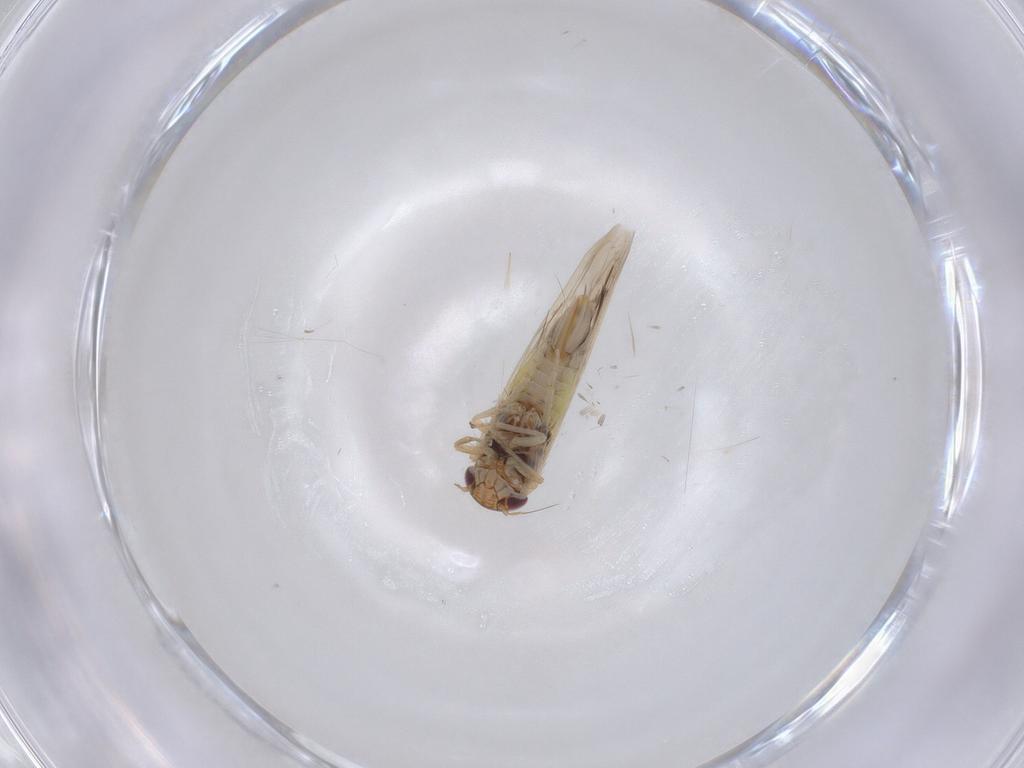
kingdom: Animalia
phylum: Arthropoda
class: Insecta
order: Hemiptera
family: Cicadellidae
